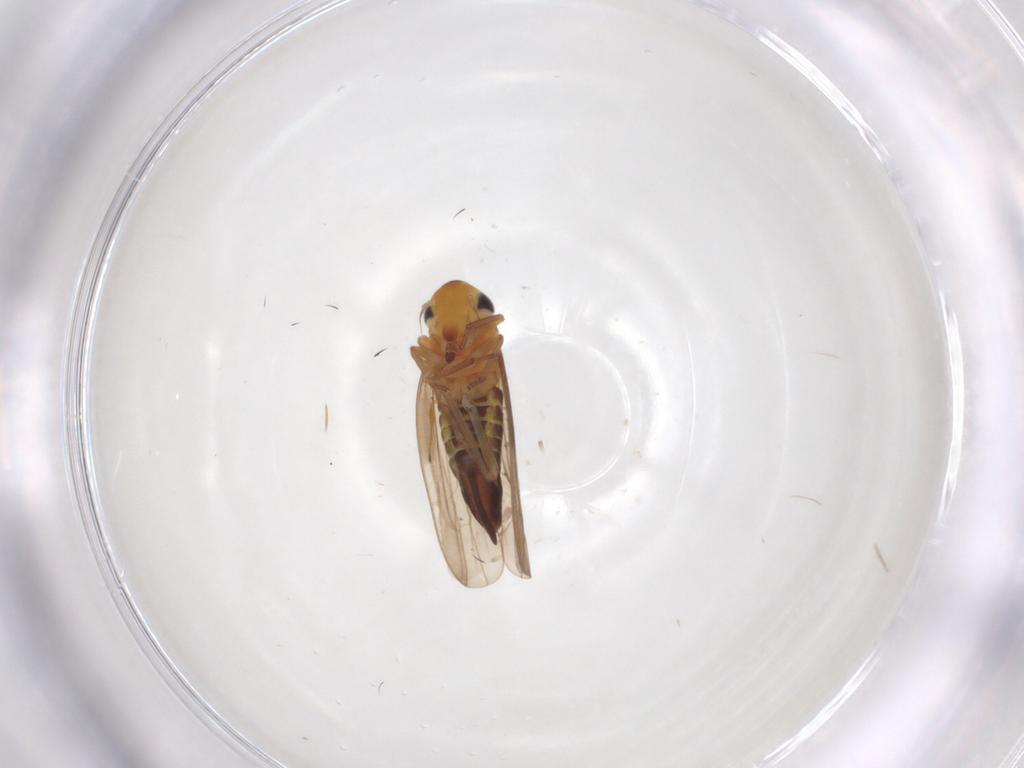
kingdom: Animalia
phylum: Arthropoda
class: Insecta
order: Hemiptera
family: Cicadellidae
